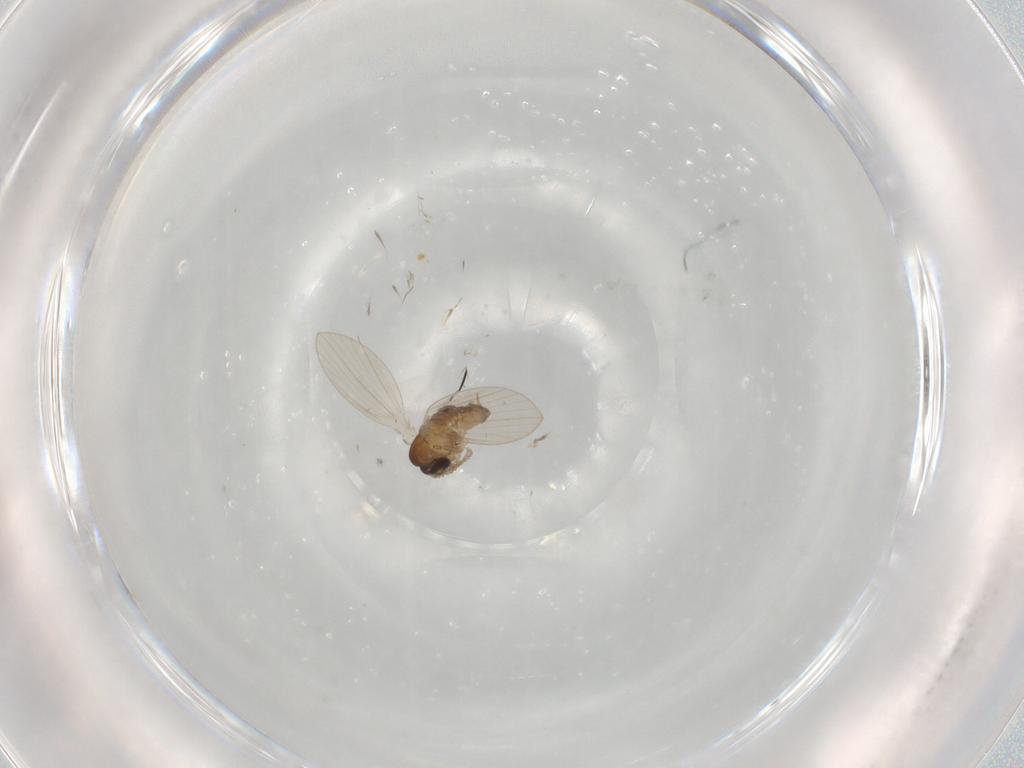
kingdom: Animalia
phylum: Arthropoda
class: Insecta
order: Diptera
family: Psychodidae
